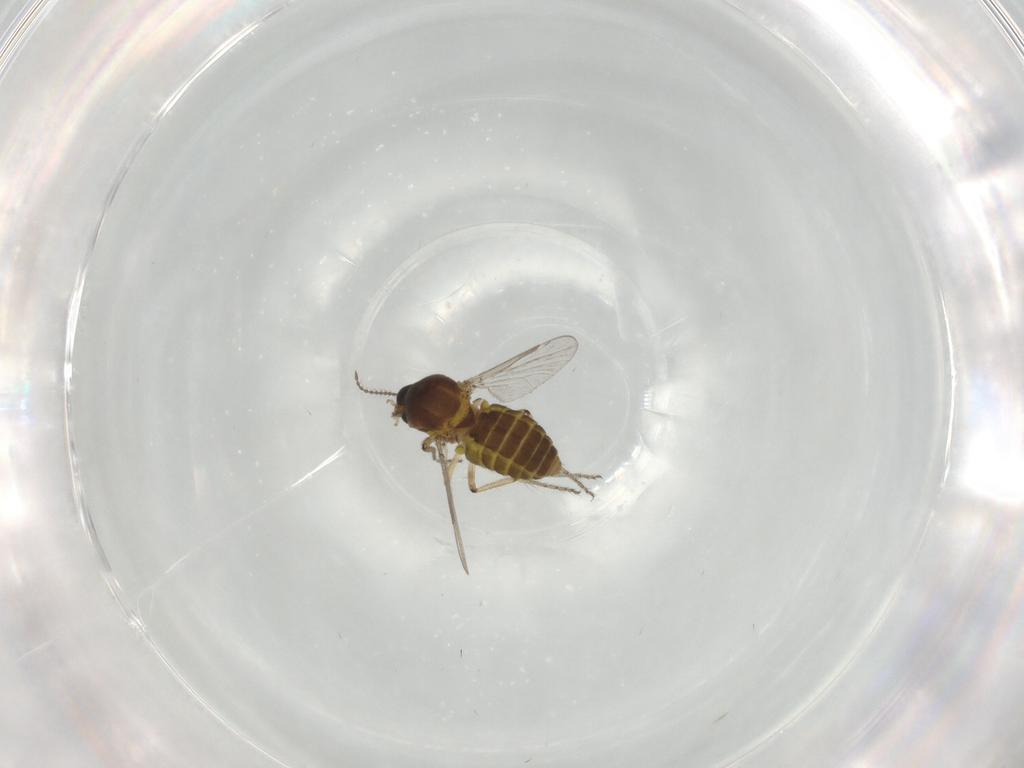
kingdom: Animalia
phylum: Arthropoda
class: Insecta
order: Diptera
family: Ceratopogonidae
